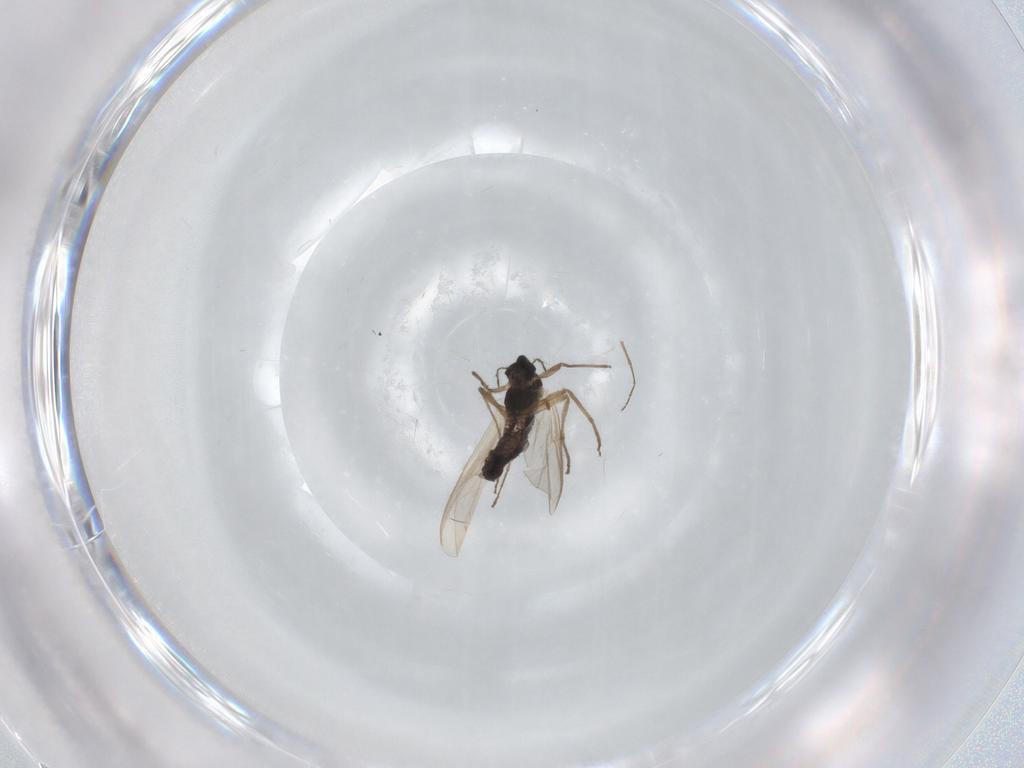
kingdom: Animalia
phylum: Arthropoda
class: Insecta
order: Diptera
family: Chironomidae
